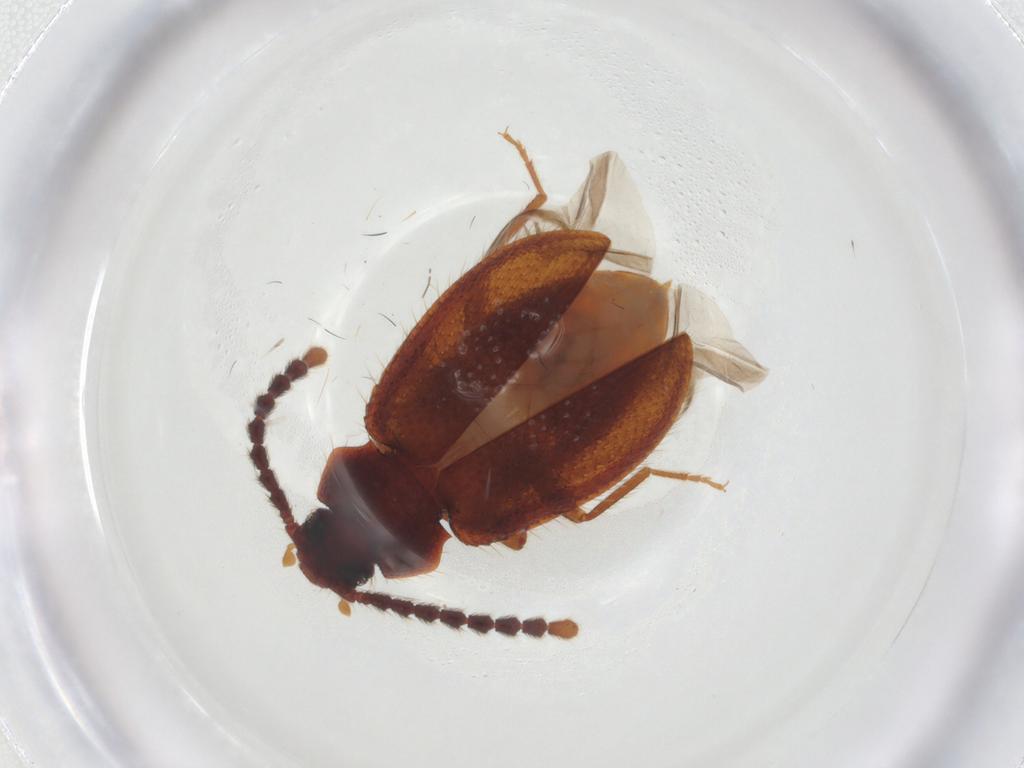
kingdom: Animalia
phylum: Arthropoda
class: Insecta
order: Coleoptera
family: Tenebrionidae
